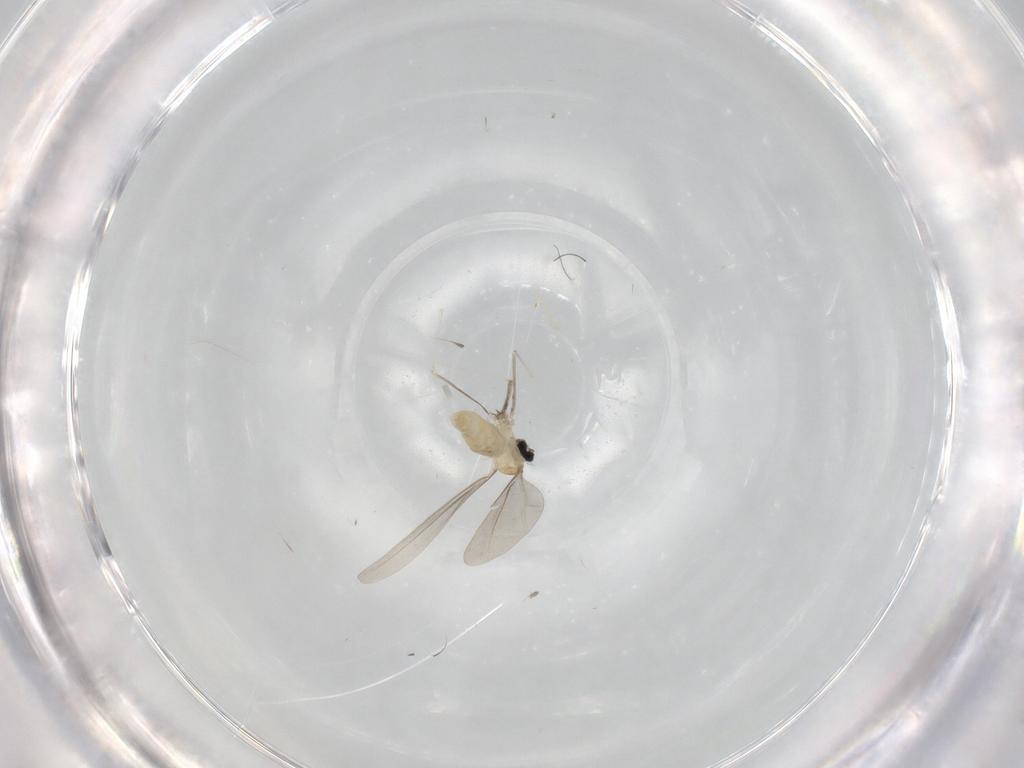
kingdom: Animalia
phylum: Arthropoda
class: Insecta
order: Diptera
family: Cecidomyiidae
